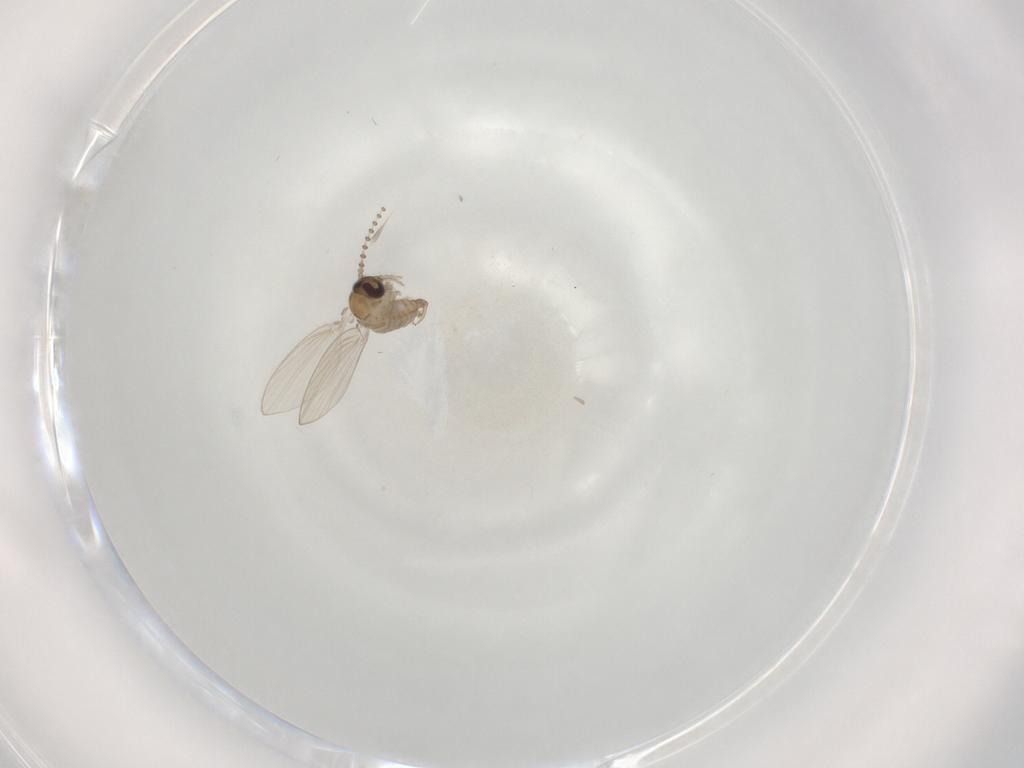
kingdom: Animalia
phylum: Arthropoda
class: Insecta
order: Diptera
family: Psychodidae
